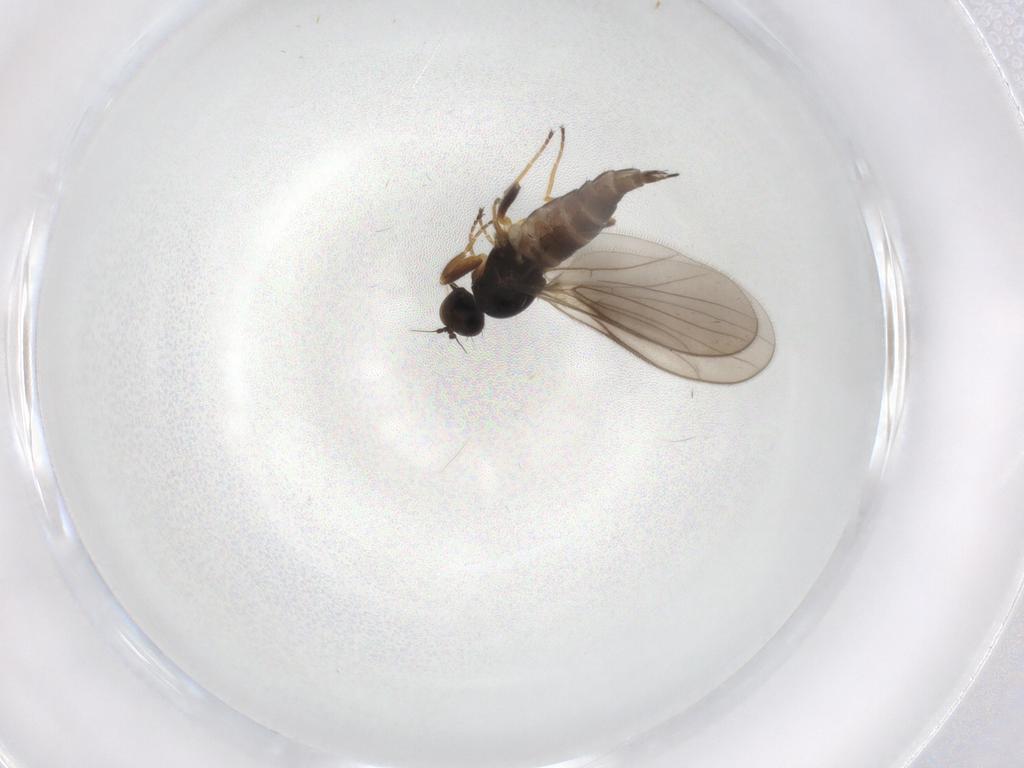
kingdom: Animalia
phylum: Arthropoda
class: Insecta
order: Diptera
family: Hybotidae
